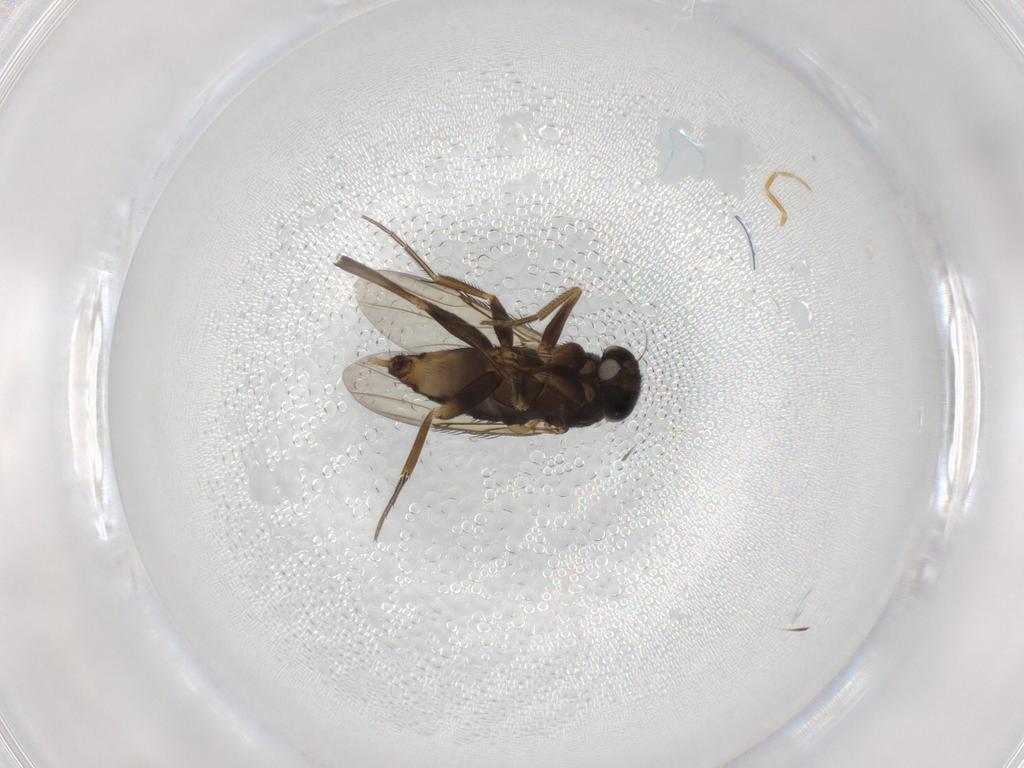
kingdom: Animalia
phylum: Arthropoda
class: Insecta
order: Diptera
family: Phoridae
